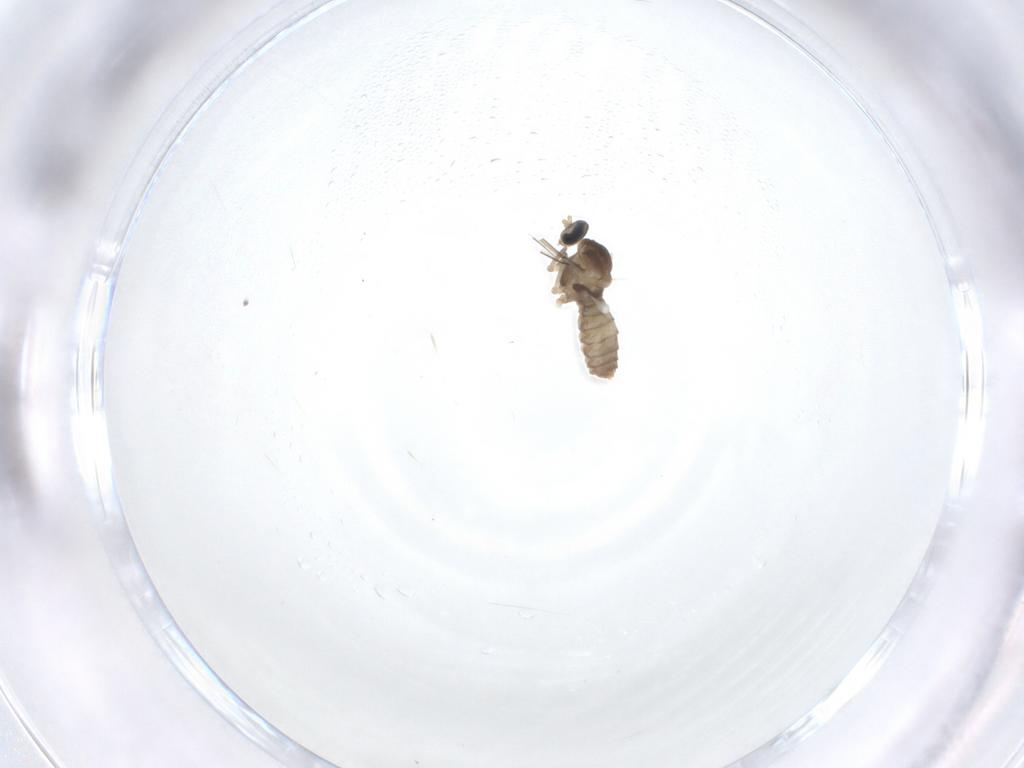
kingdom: Animalia
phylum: Arthropoda
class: Insecta
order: Diptera
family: Cecidomyiidae
